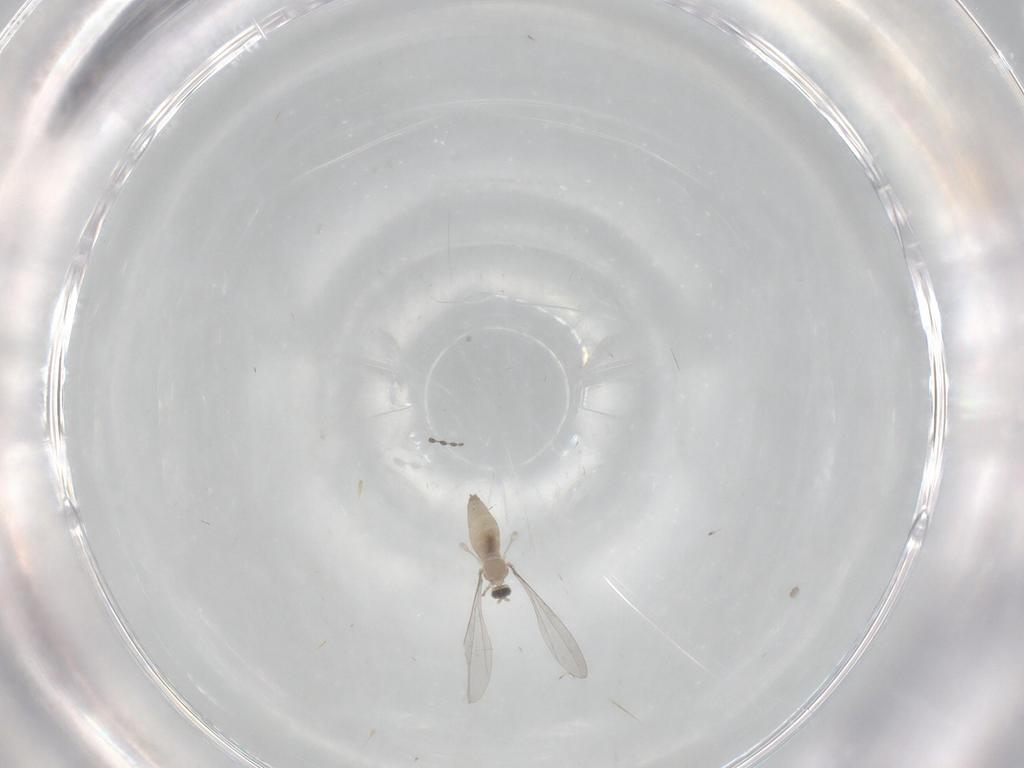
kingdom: Animalia
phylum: Arthropoda
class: Insecta
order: Diptera
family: Limoniidae
